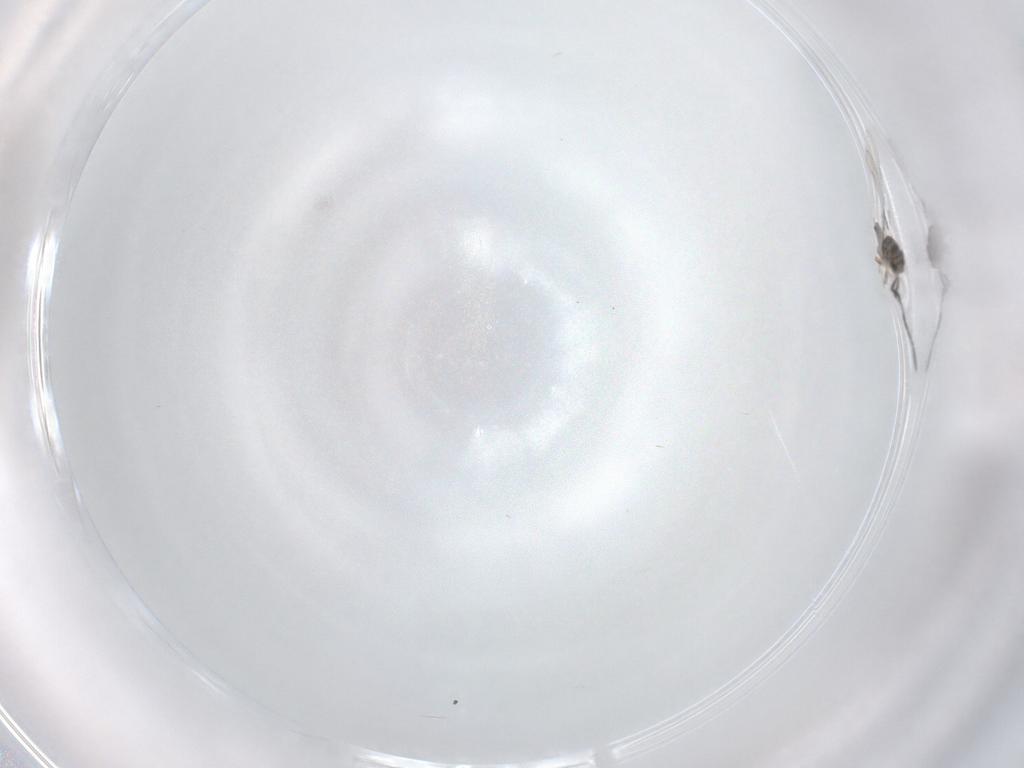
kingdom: Animalia
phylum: Arthropoda
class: Insecta
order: Hymenoptera
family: Mymaridae
